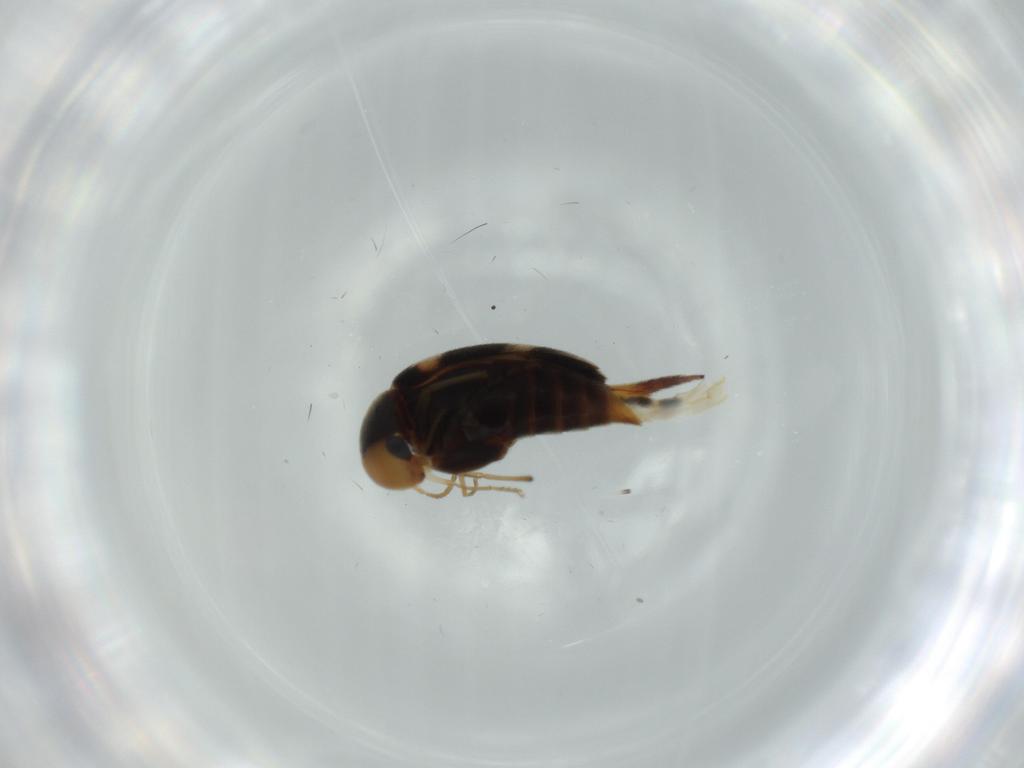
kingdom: Animalia
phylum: Arthropoda
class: Insecta
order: Coleoptera
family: Mordellidae
